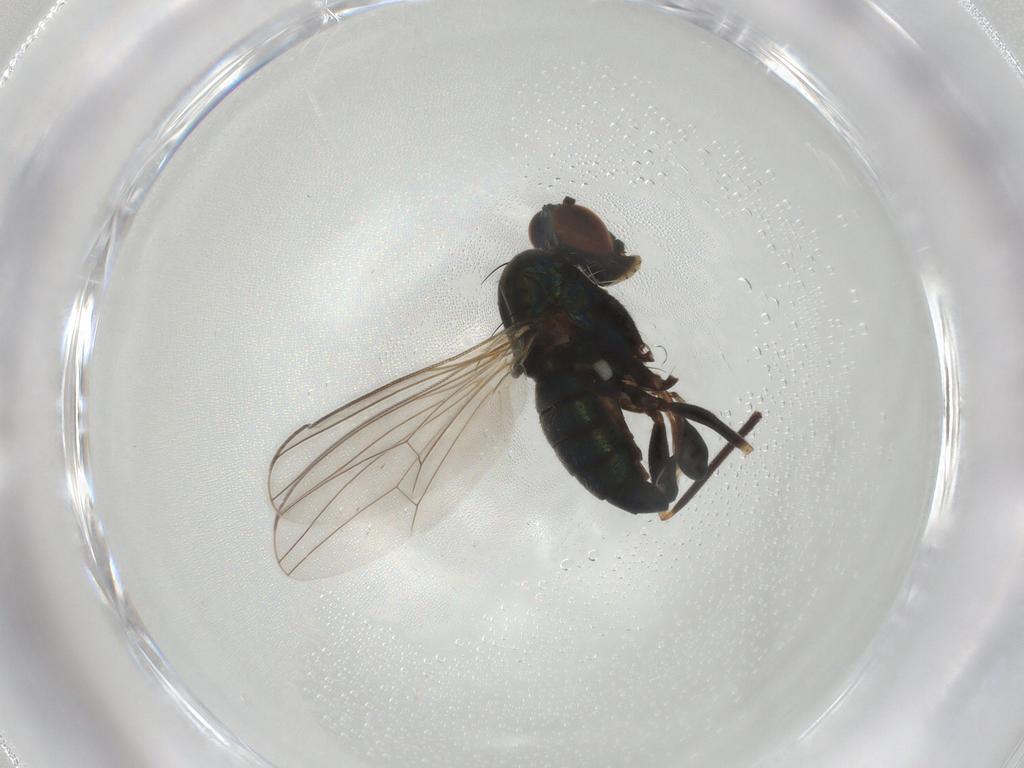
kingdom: Animalia
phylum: Arthropoda
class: Insecta
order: Diptera
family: Dolichopodidae
